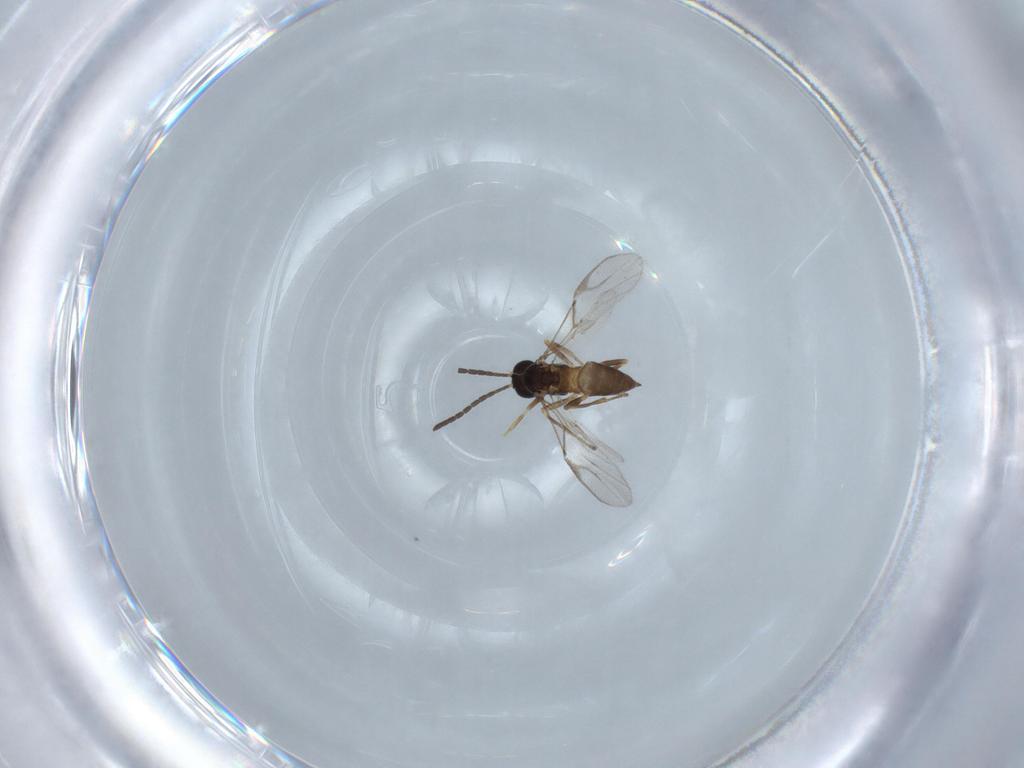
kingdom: Animalia
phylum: Arthropoda
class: Insecta
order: Hymenoptera
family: Braconidae
